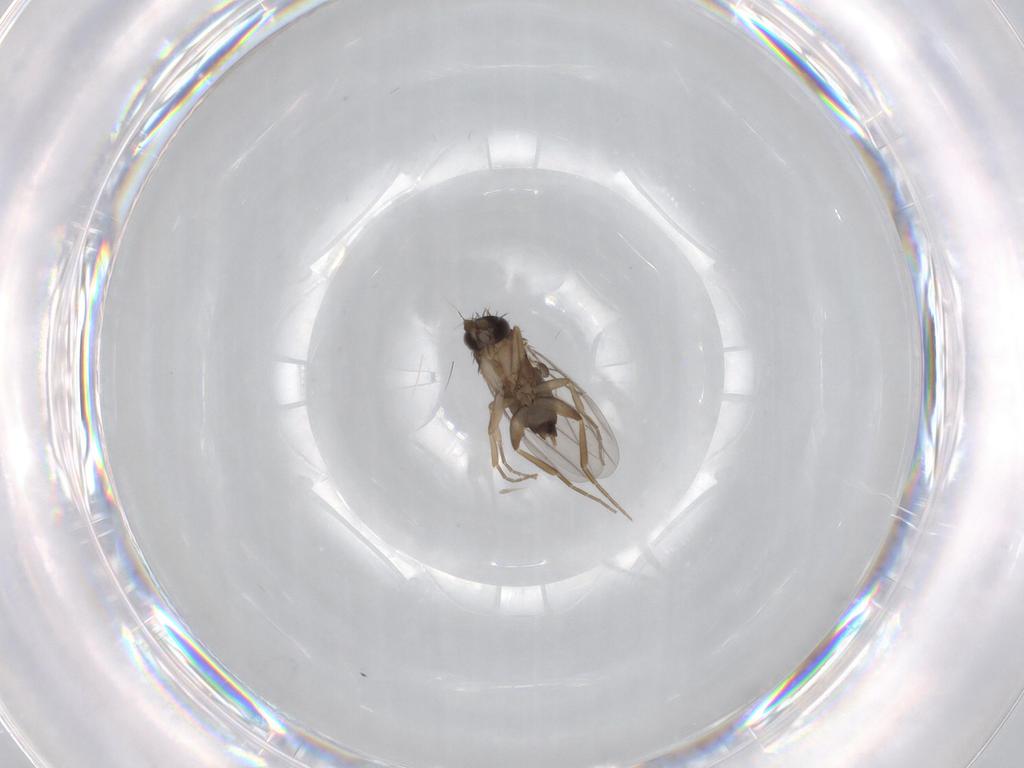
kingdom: Animalia
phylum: Arthropoda
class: Insecta
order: Diptera
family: Phoridae
